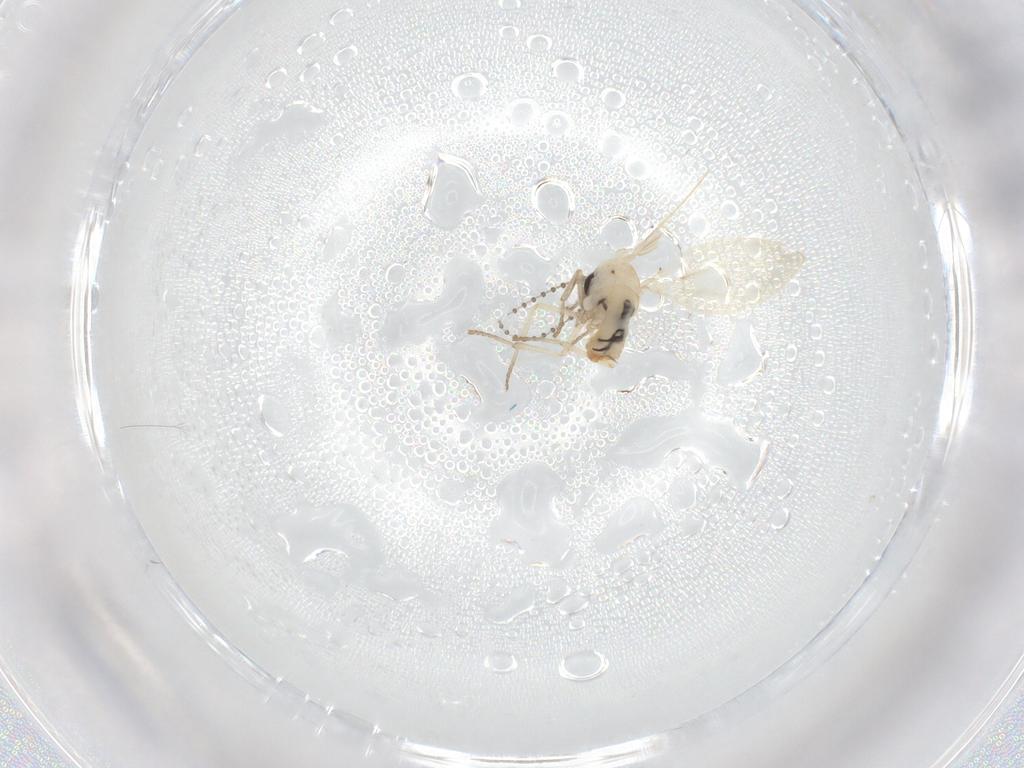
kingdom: Animalia
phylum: Arthropoda
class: Insecta
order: Diptera
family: Psychodidae
